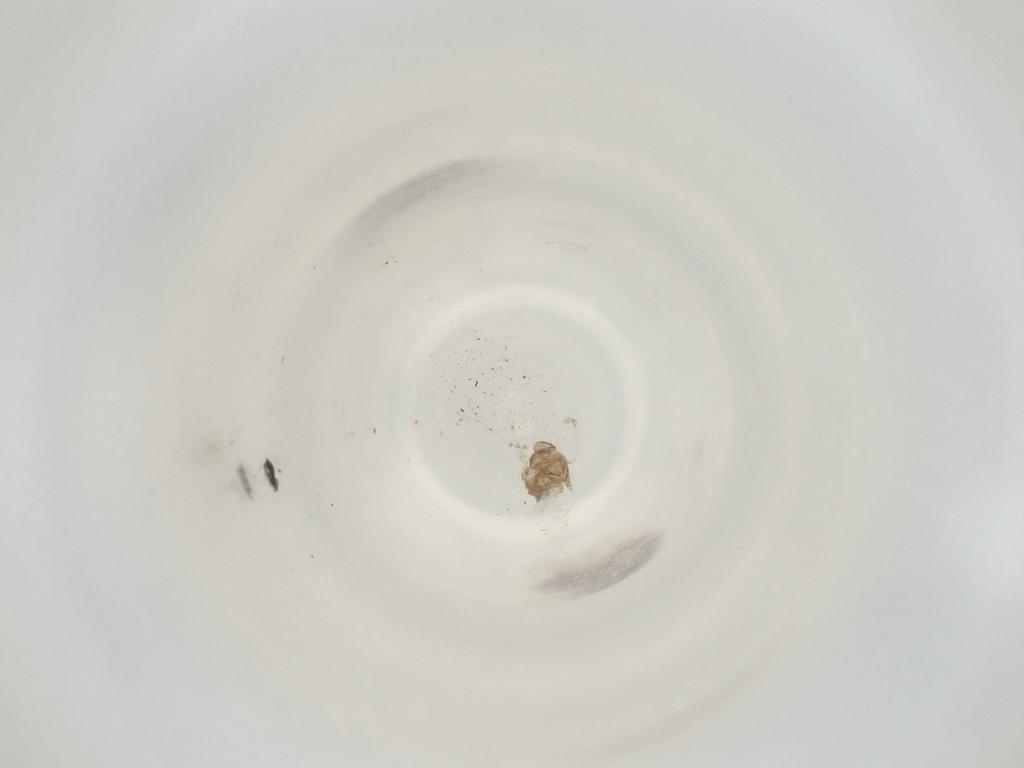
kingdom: Animalia
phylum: Arthropoda
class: Insecta
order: Diptera
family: Cecidomyiidae
